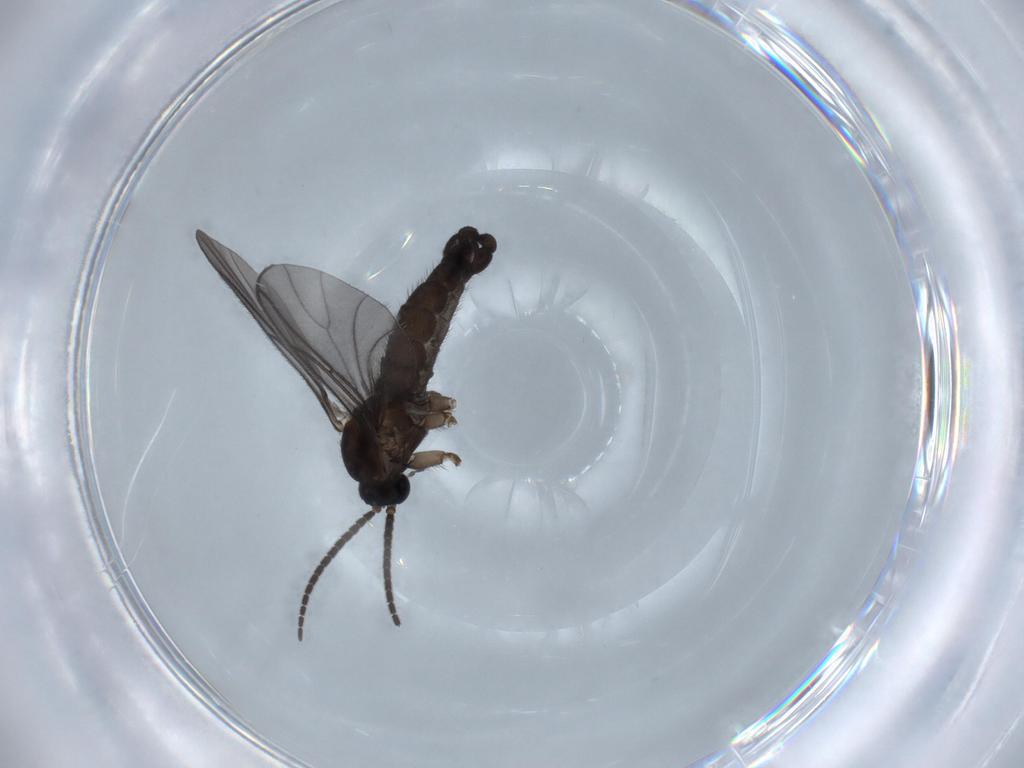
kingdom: Animalia
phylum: Arthropoda
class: Insecta
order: Diptera
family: Sciaridae
